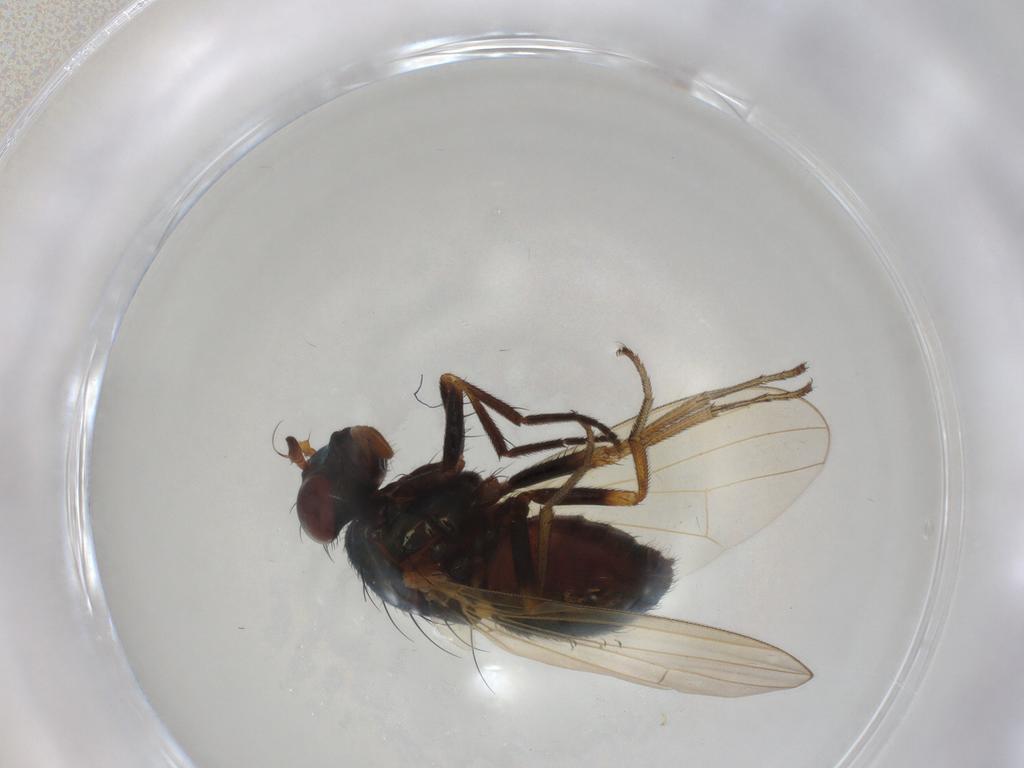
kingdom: Animalia
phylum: Arthropoda
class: Insecta
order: Diptera
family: Lauxaniidae
